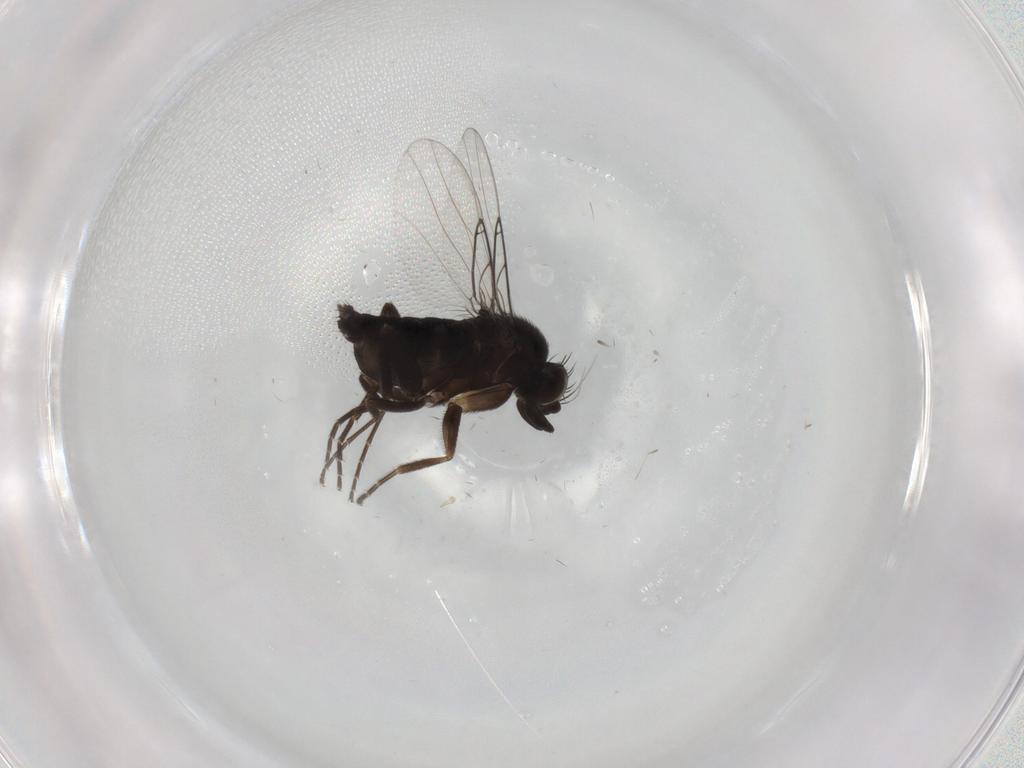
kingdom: Animalia
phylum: Arthropoda
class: Insecta
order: Diptera
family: Phoridae
